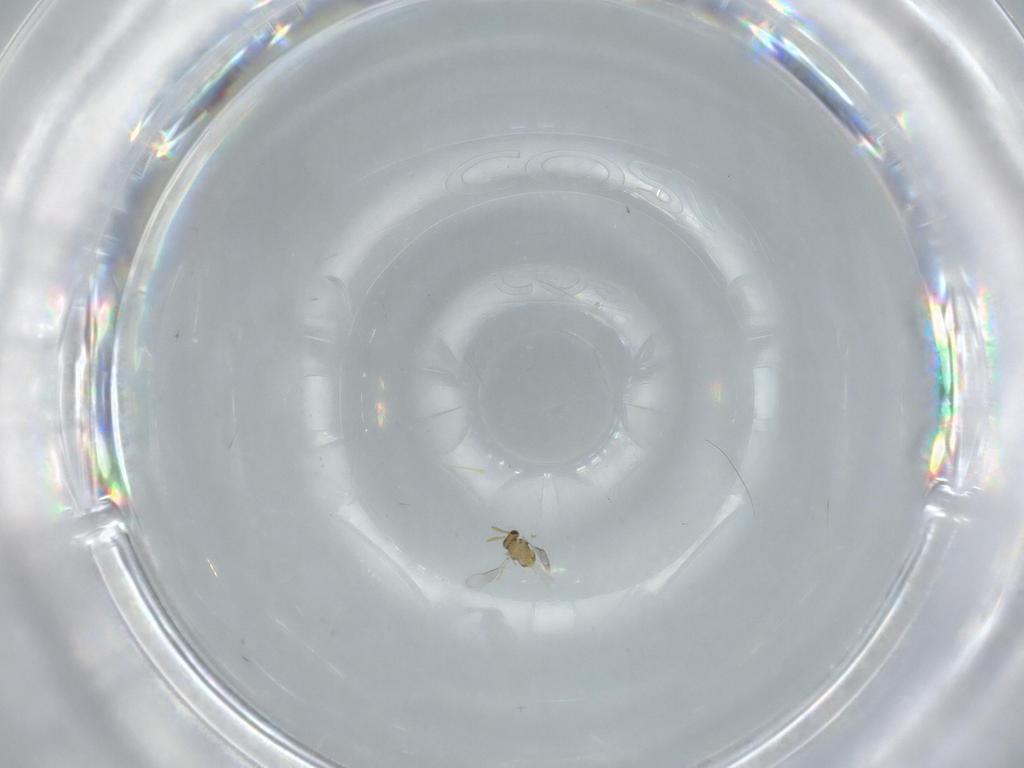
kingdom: Animalia
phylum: Arthropoda
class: Insecta
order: Hymenoptera
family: Aphelinidae
